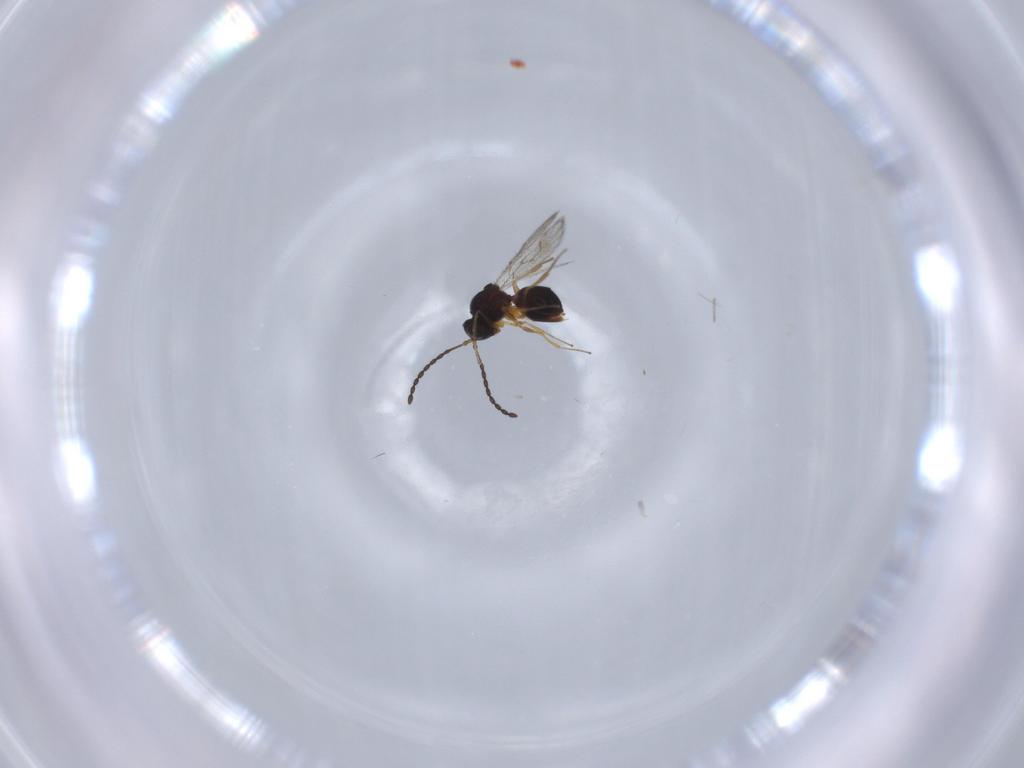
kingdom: Animalia
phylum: Arthropoda
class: Insecta
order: Hymenoptera
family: Figitidae
